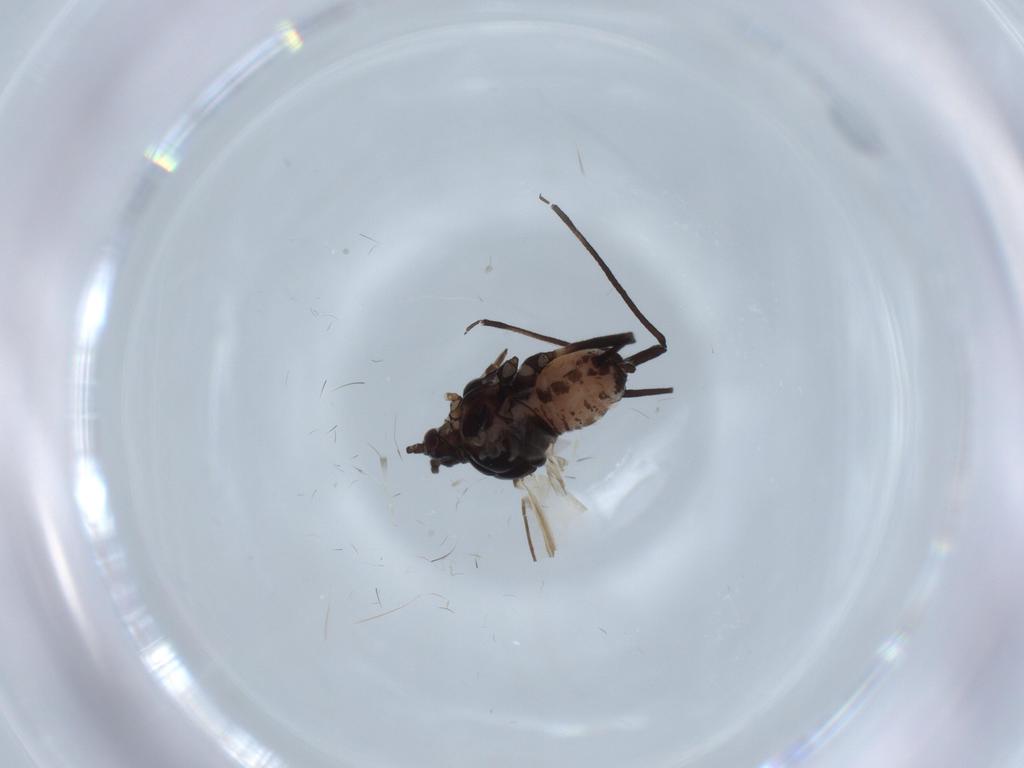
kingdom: Animalia
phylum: Arthropoda
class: Insecta
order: Hemiptera
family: Aphididae
